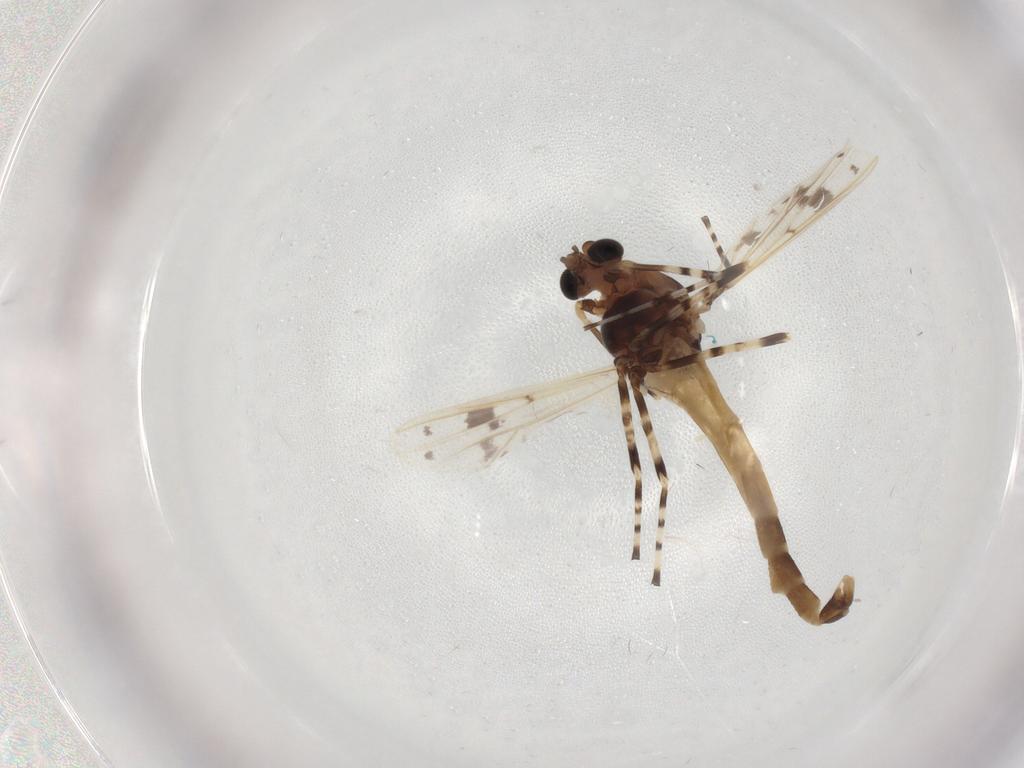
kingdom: Animalia
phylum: Arthropoda
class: Insecta
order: Diptera
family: Chironomidae
